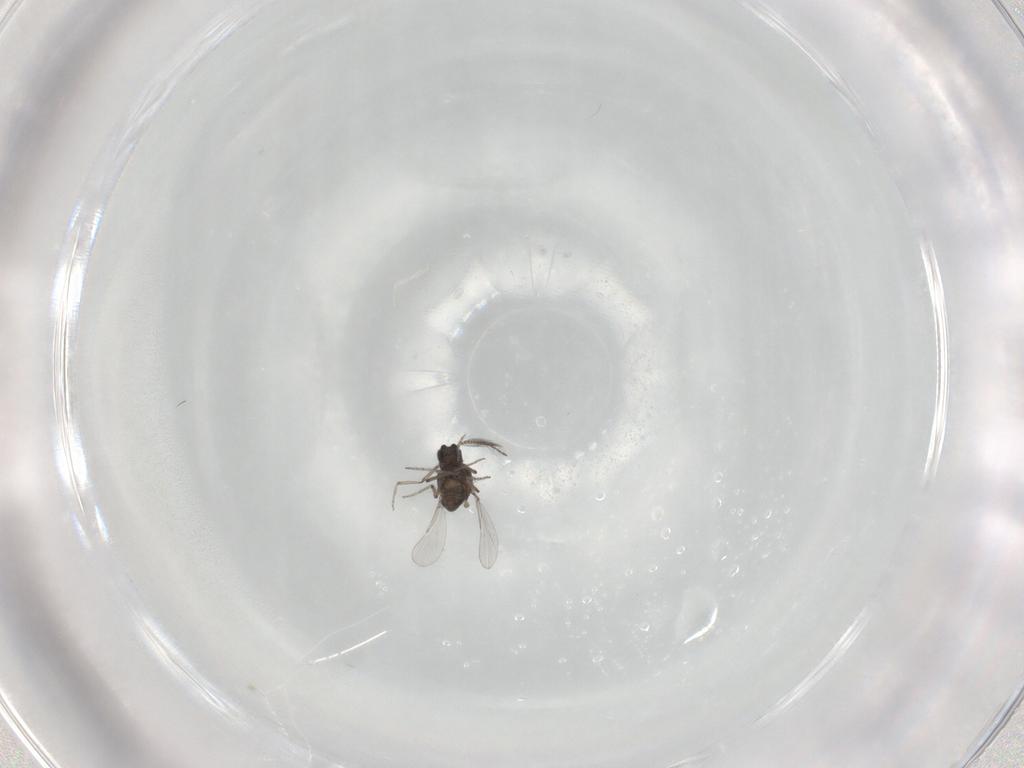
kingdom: Animalia
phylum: Arthropoda
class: Insecta
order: Diptera
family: Ceratopogonidae
